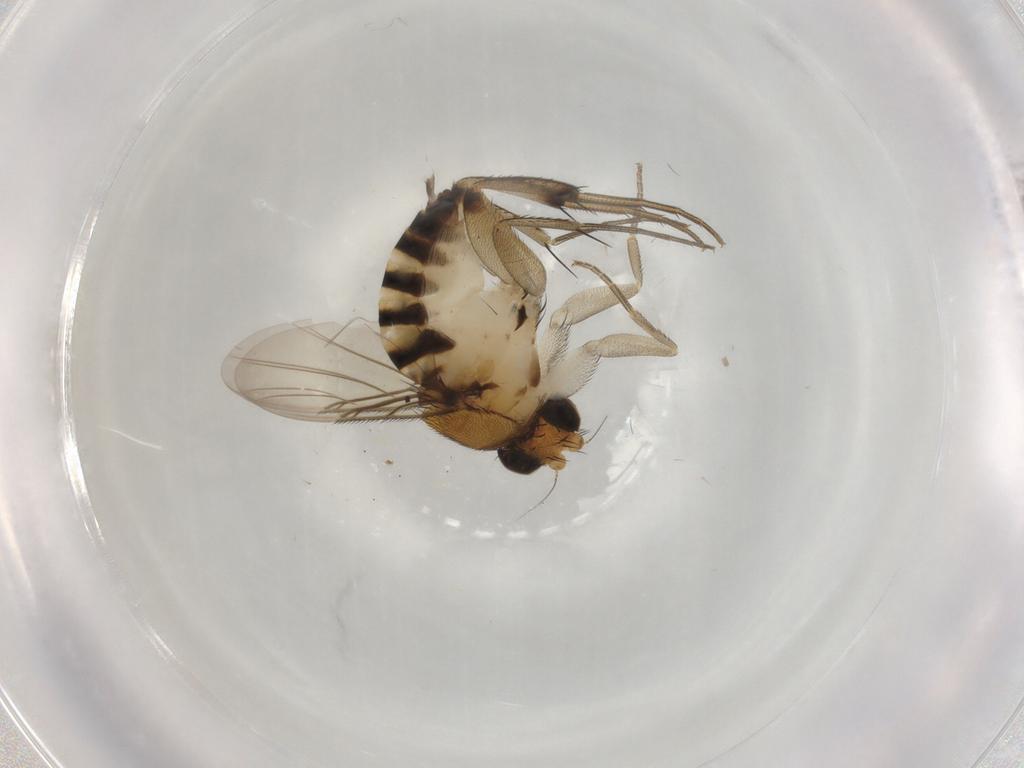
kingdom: Animalia
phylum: Arthropoda
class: Insecta
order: Diptera
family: Phoridae
